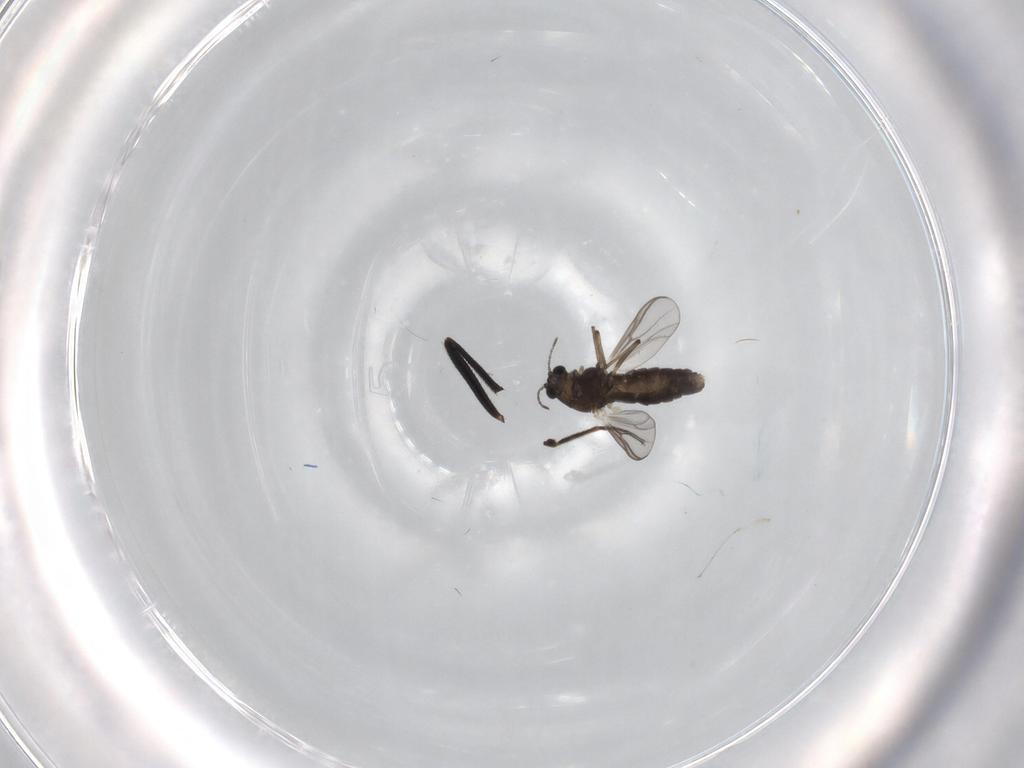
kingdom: Animalia
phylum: Arthropoda
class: Insecta
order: Diptera
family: Chironomidae
